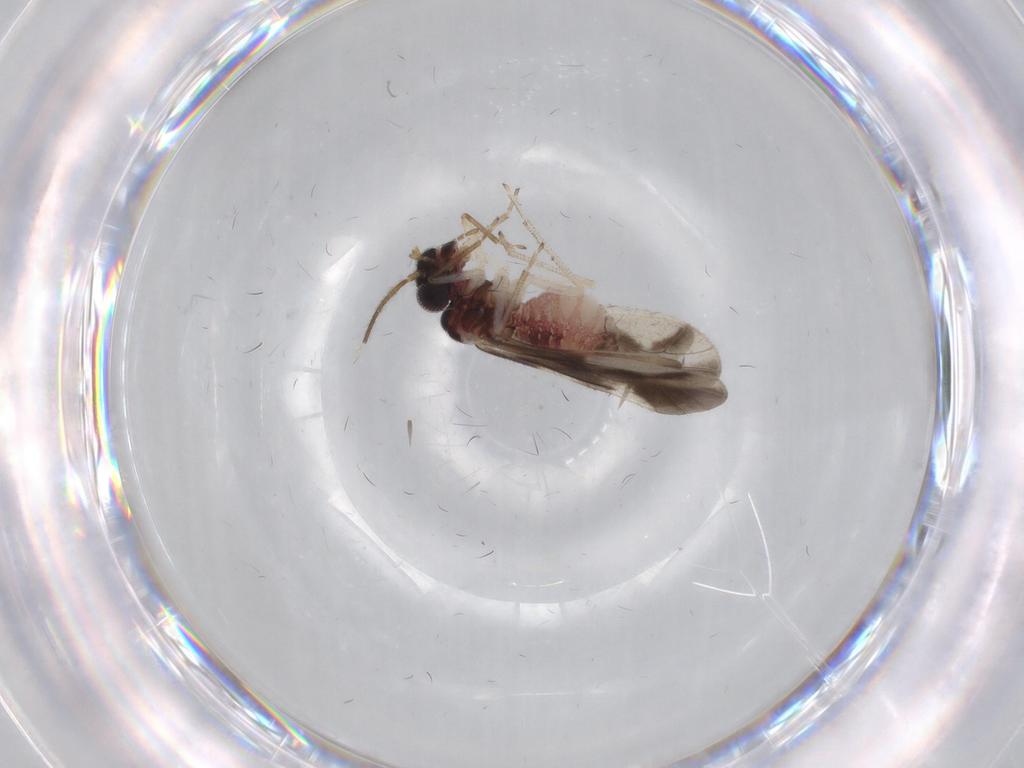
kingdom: Animalia
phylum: Arthropoda
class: Insecta
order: Psocodea
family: Caeciliusidae
